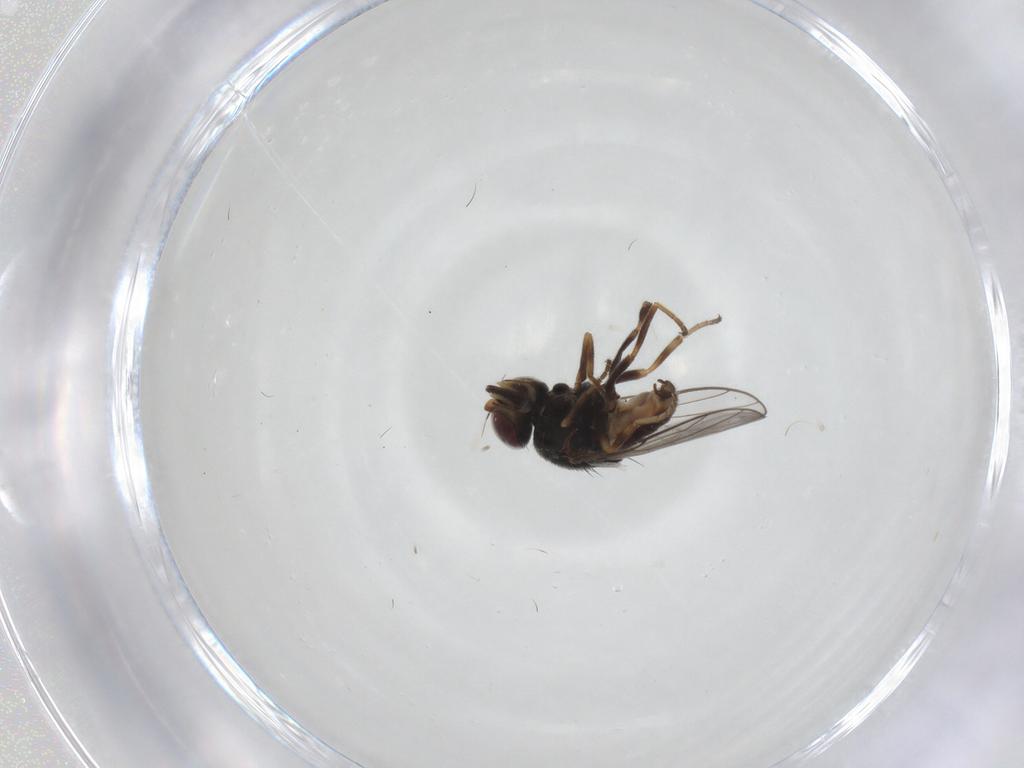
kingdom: Animalia
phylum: Arthropoda
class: Insecta
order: Diptera
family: Chloropidae
